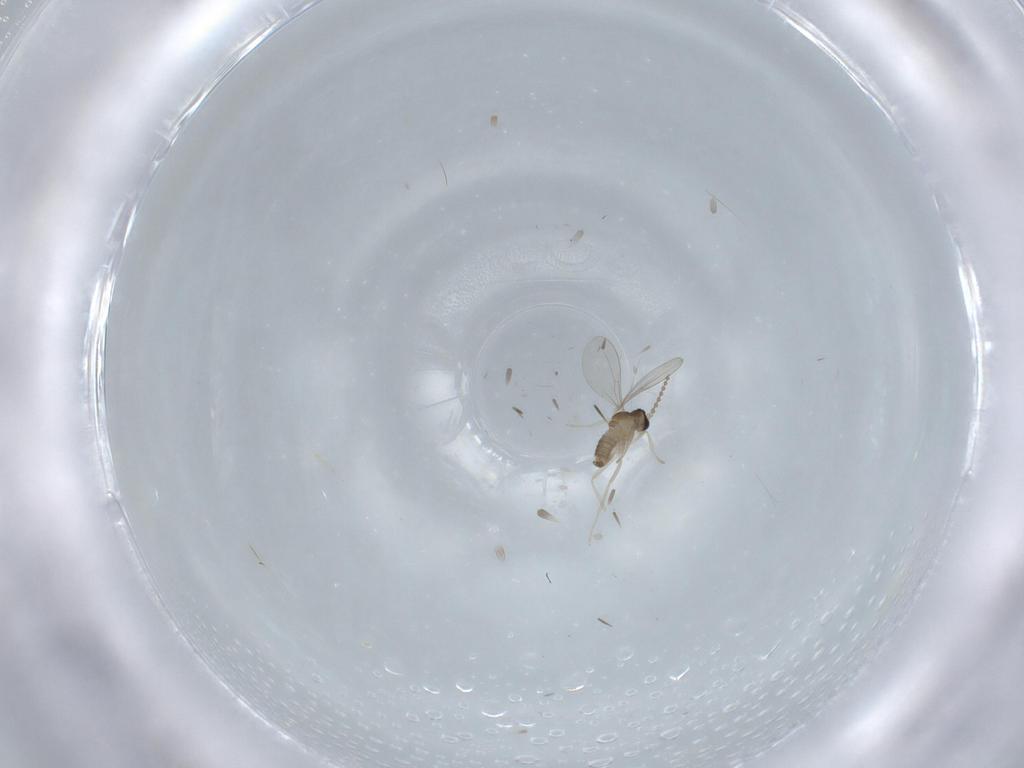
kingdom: Animalia
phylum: Arthropoda
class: Insecta
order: Diptera
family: Cecidomyiidae
